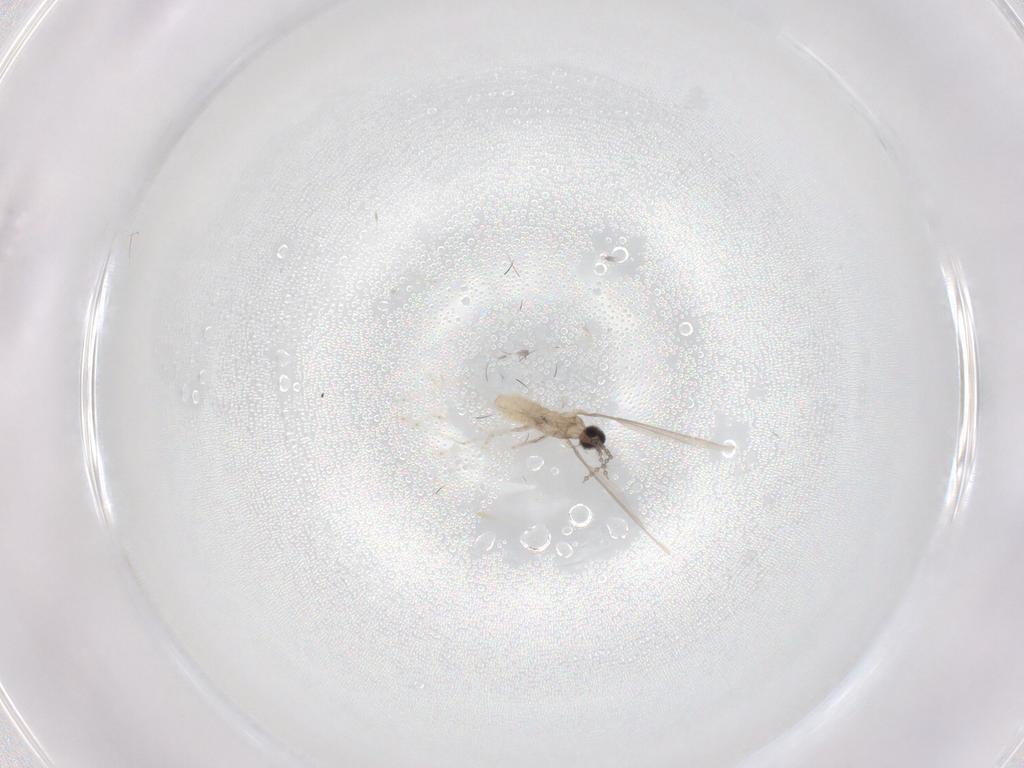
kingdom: Animalia
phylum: Arthropoda
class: Insecta
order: Diptera
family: Cecidomyiidae
